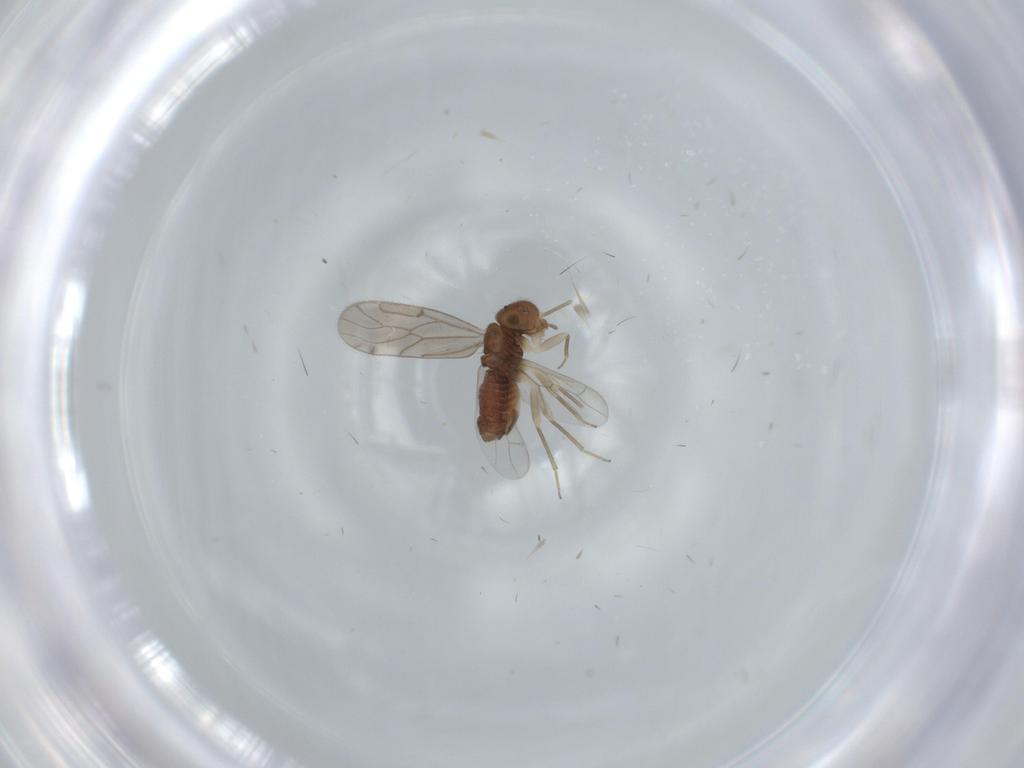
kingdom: Animalia
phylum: Arthropoda
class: Insecta
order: Psocodea
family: Ectopsocidae
